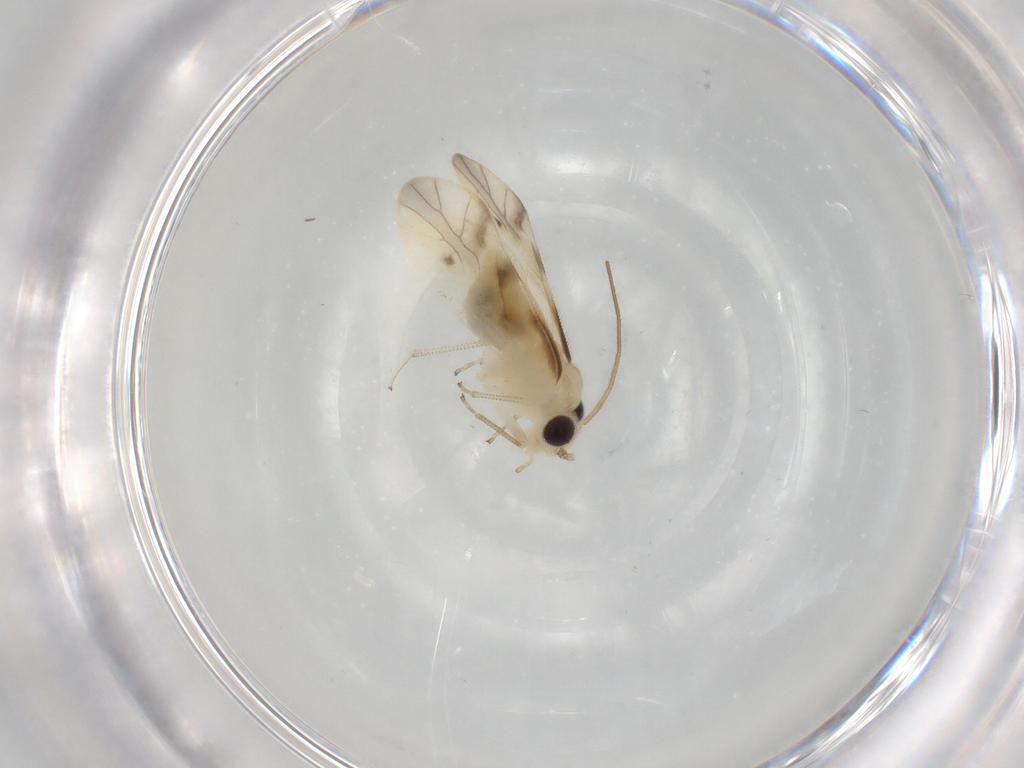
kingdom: Animalia
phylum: Arthropoda
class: Insecta
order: Psocodea
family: Caeciliusidae
